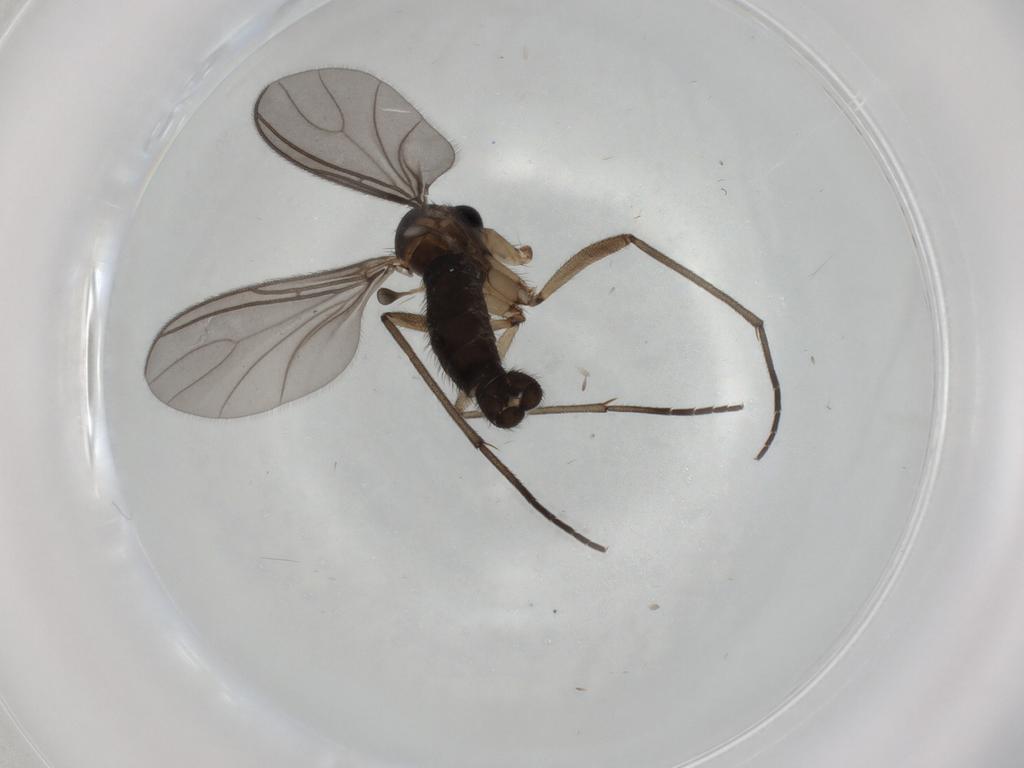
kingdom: Animalia
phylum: Arthropoda
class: Insecta
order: Diptera
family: Sciaridae
